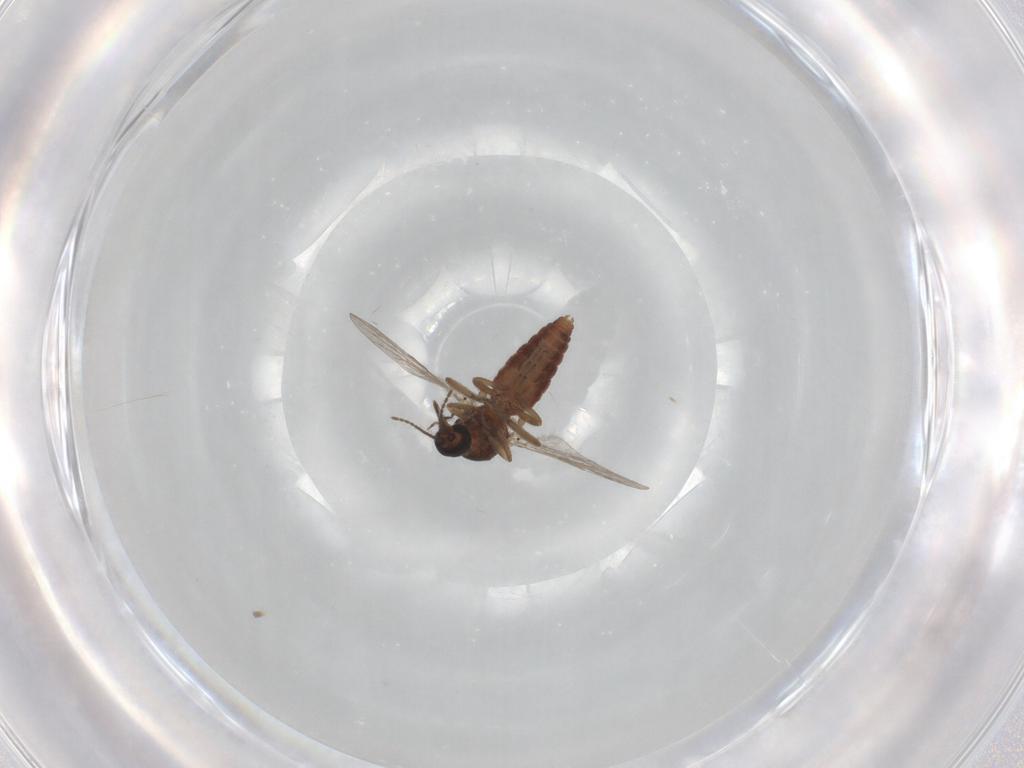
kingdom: Animalia
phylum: Arthropoda
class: Insecta
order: Diptera
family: Ceratopogonidae
